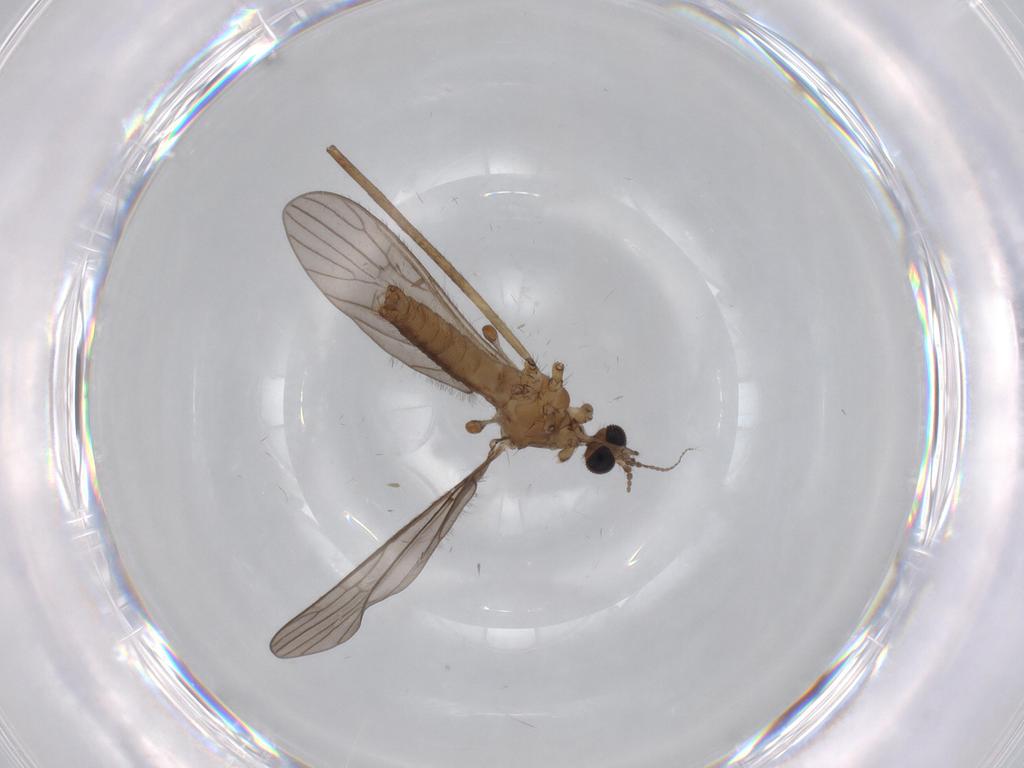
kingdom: Animalia
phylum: Arthropoda
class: Insecta
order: Diptera
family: Limoniidae
